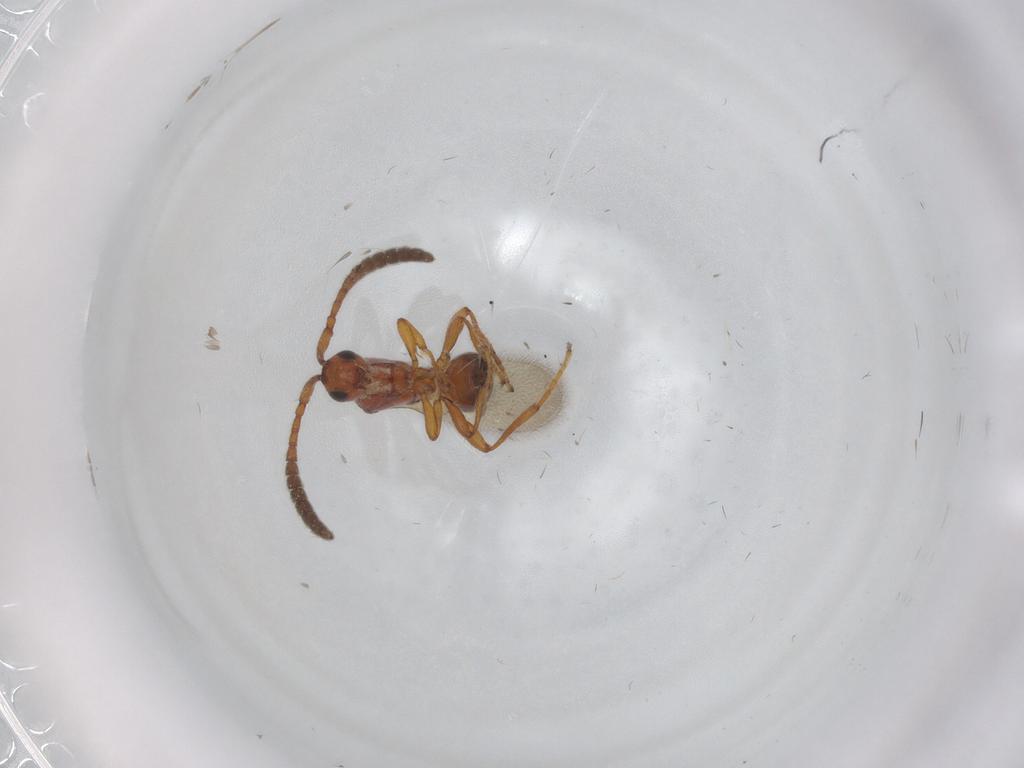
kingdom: Animalia
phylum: Arthropoda
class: Insecta
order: Hymenoptera
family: Diapriidae
